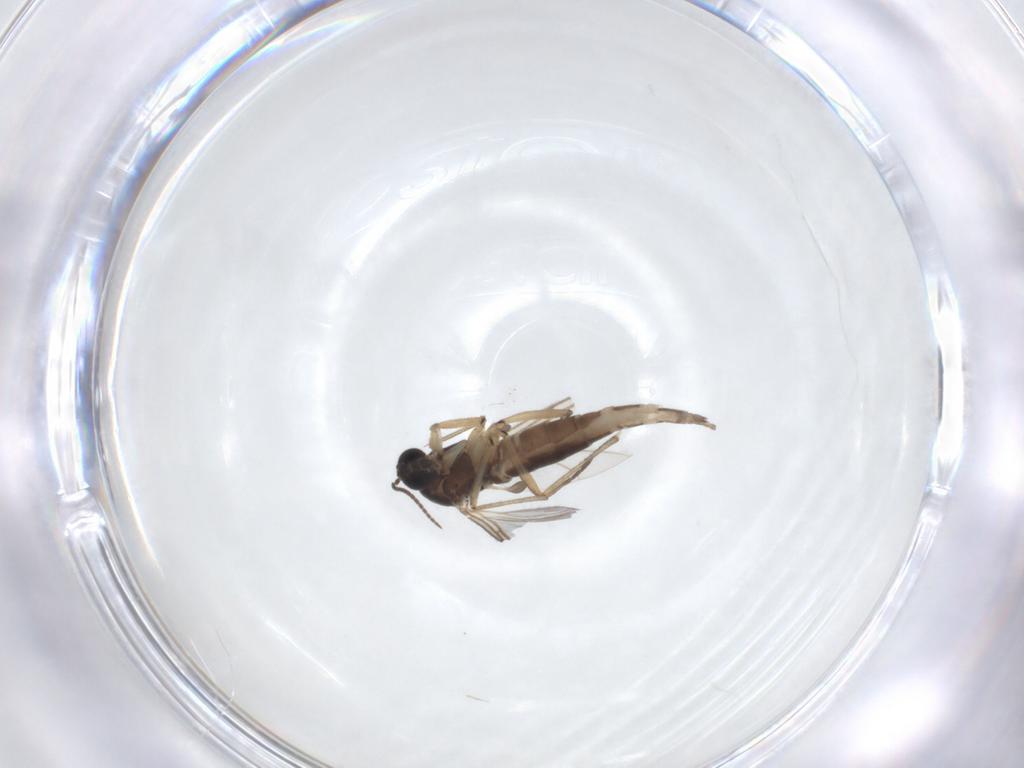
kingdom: Animalia
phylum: Arthropoda
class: Insecta
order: Diptera
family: Sciaridae
